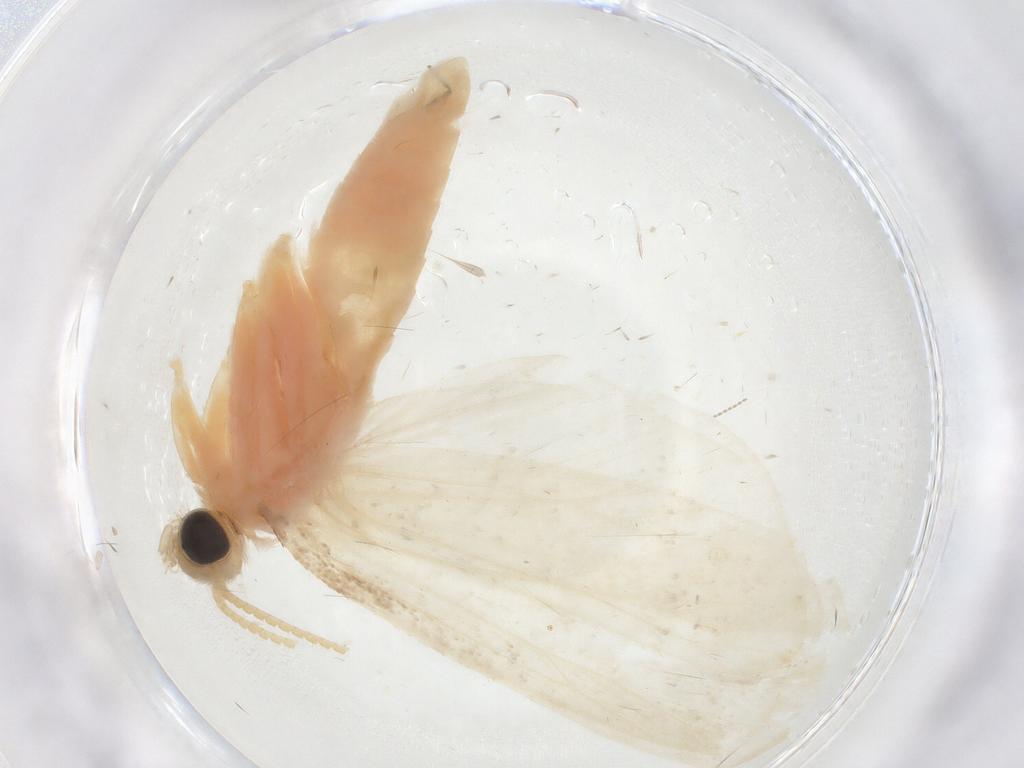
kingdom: Animalia
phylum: Arthropoda
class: Insecta
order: Lepidoptera
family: Crambidae
